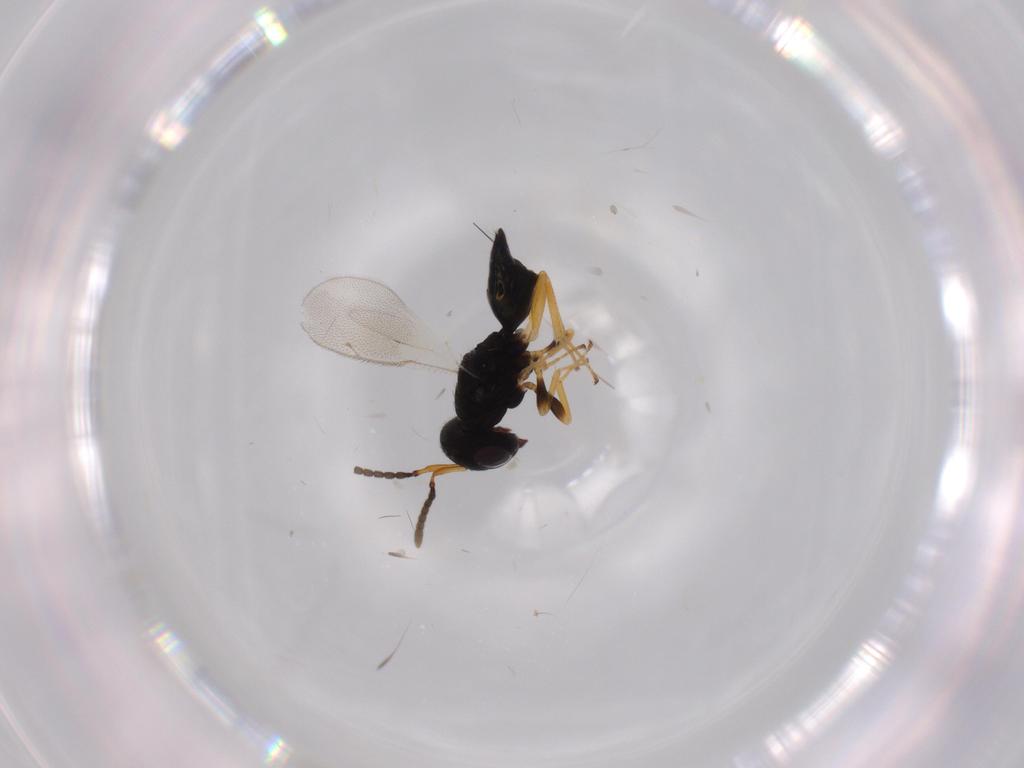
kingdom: Animalia
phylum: Arthropoda
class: Insecta
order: Hymenoptera
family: Pteromalidae
